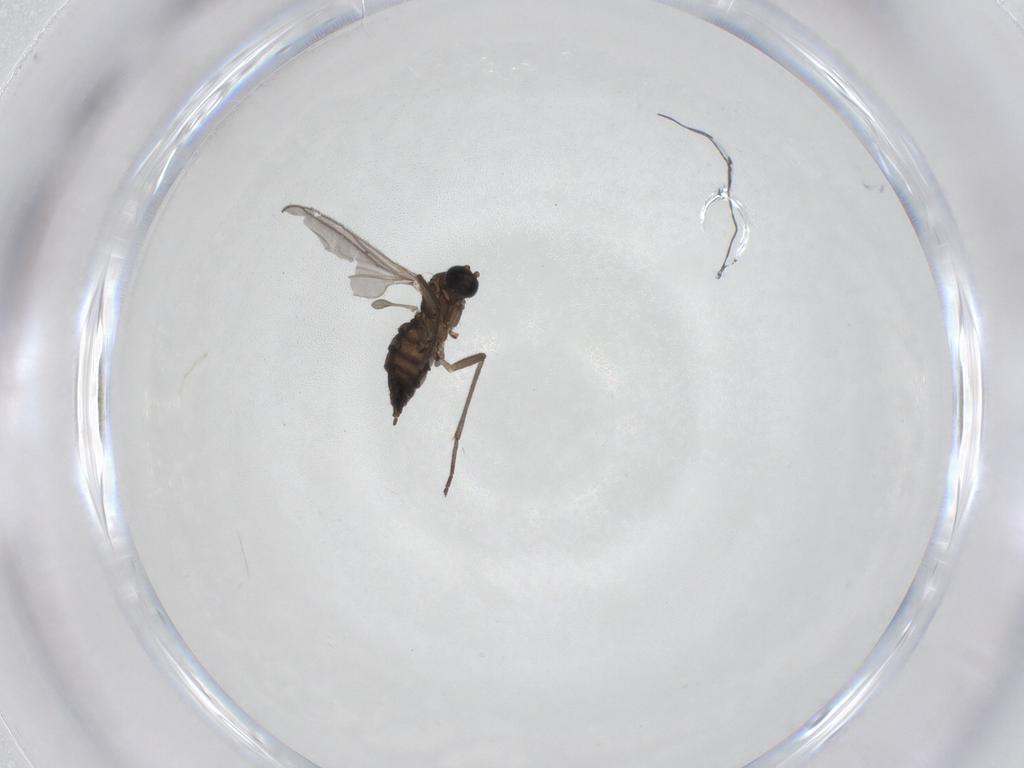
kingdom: Animalia
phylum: Arthropoda
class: Insecta
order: Diptera
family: Sciaridae
